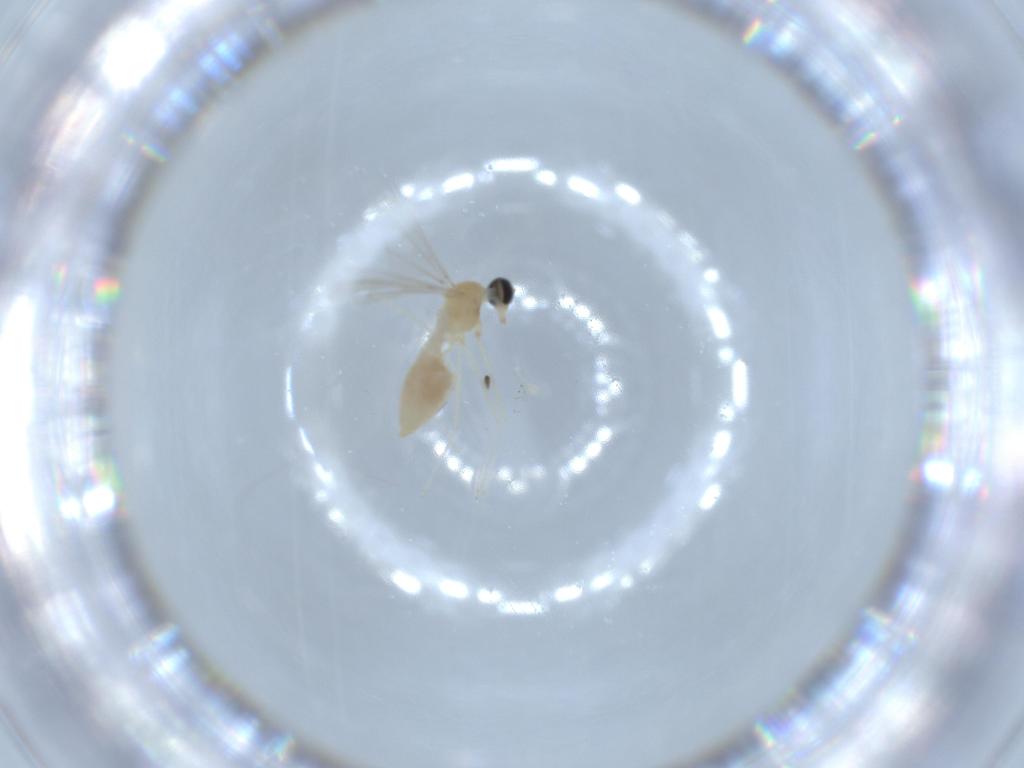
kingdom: Animalia
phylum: Arthropoda
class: Insecta
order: Diptera
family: Cecidomyiidae
